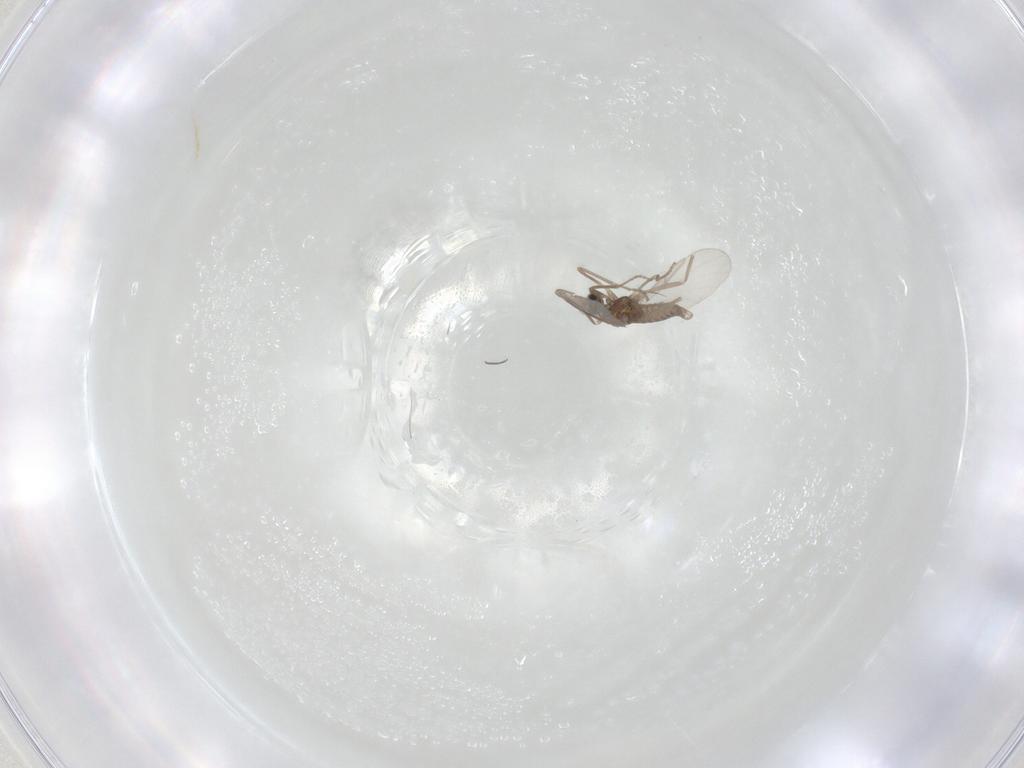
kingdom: Animalia
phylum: Arthropoda
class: Insecta
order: Diptera
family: Cecidomyiidae
